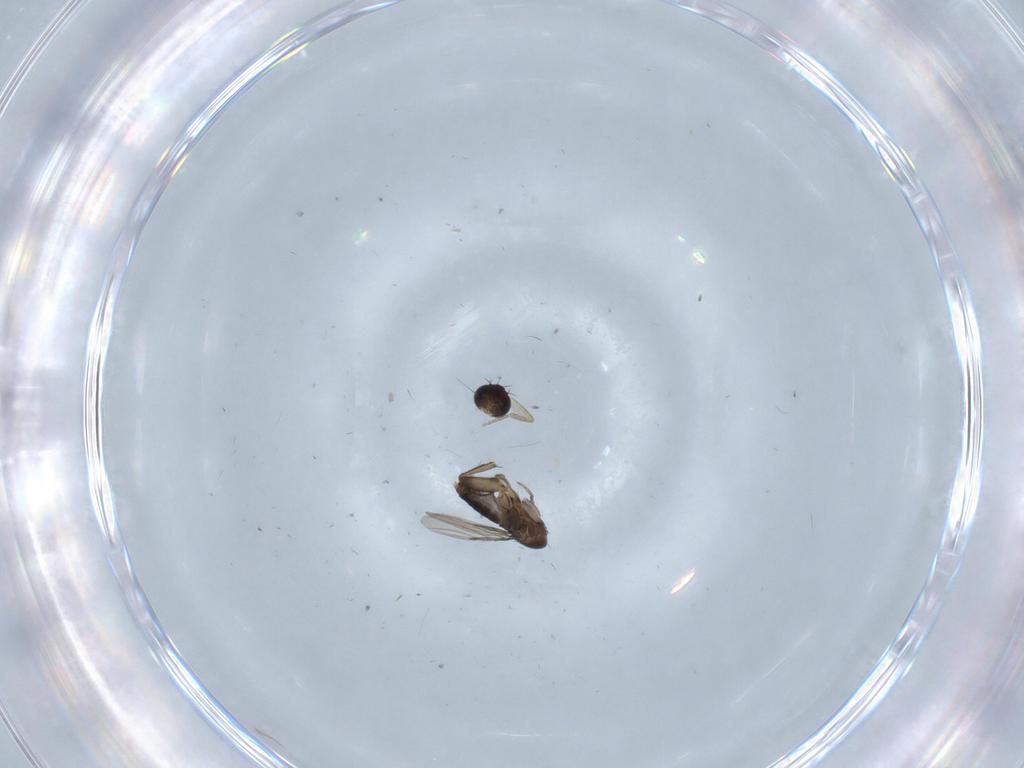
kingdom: Animalia
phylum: Arthropoda
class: Insecta
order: Diptera
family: Phoridae
